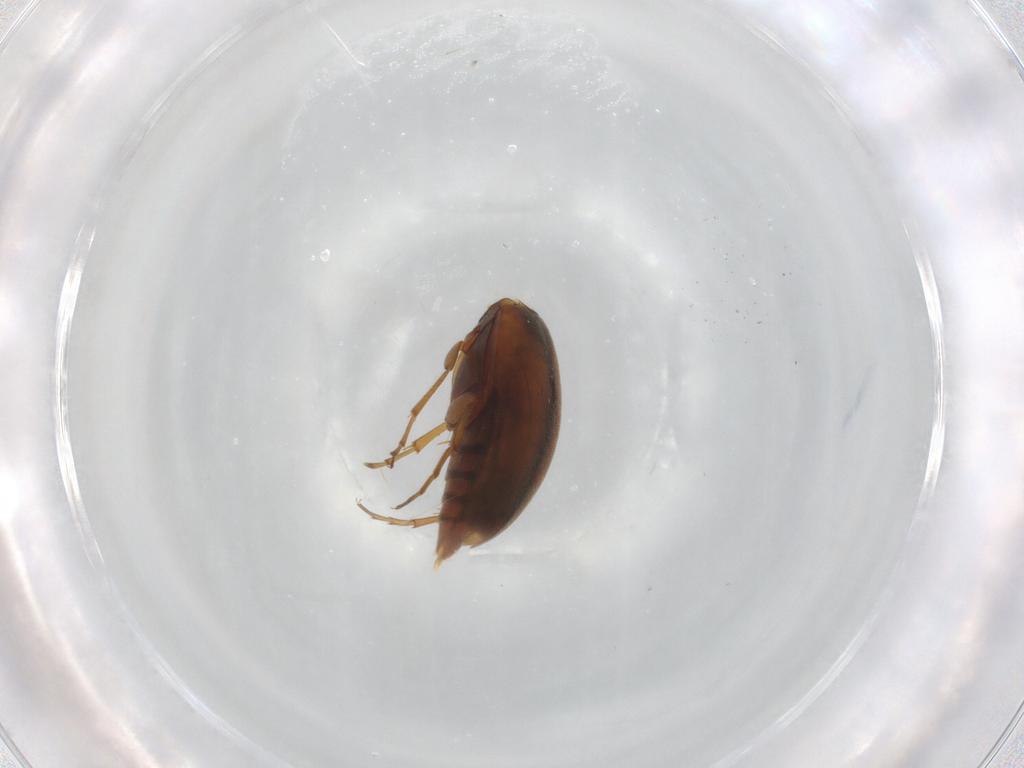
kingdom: Animalia
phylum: Arthropoda
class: Insecta
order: Coleoptera
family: Scraptiidae
